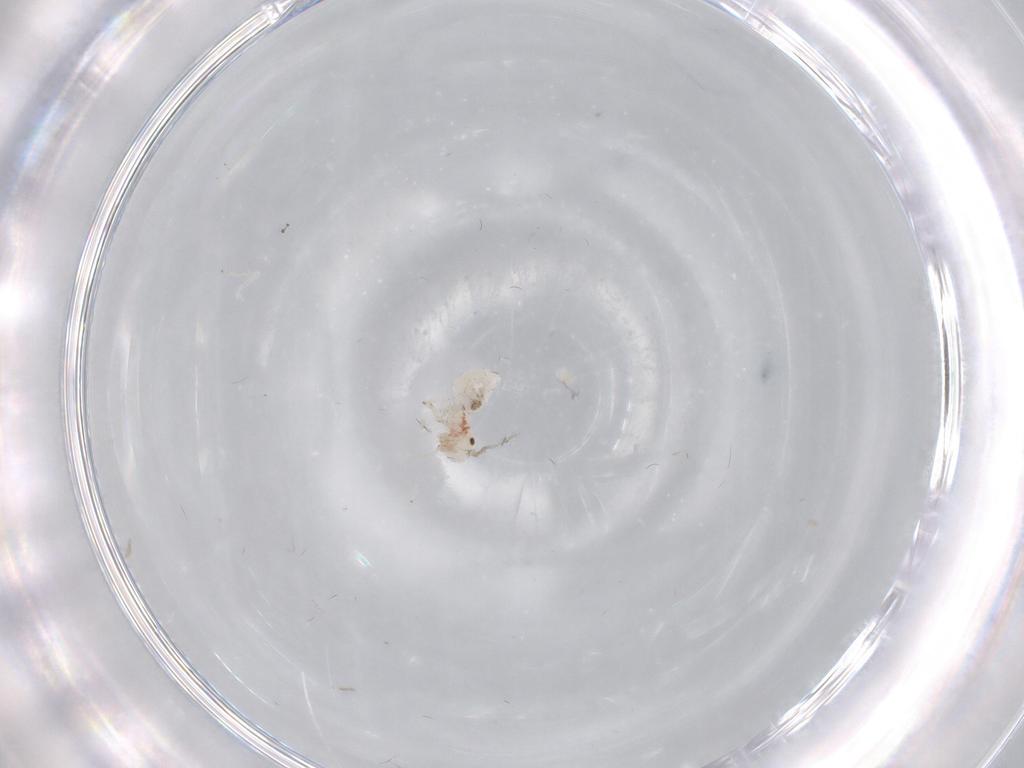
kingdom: Animalia
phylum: Arthropoda
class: Insecta
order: Psocodea
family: Caeciliusidae
